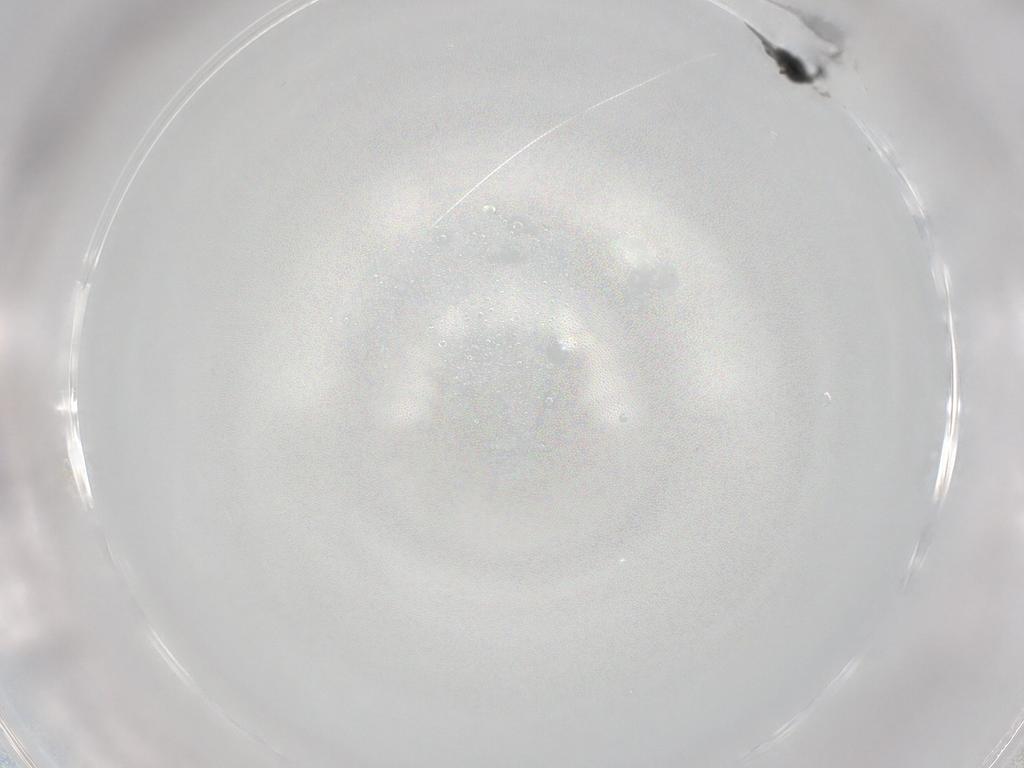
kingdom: Animalia
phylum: Arthropoda
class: Insecta
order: Hymenoptera
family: Scelionidae
